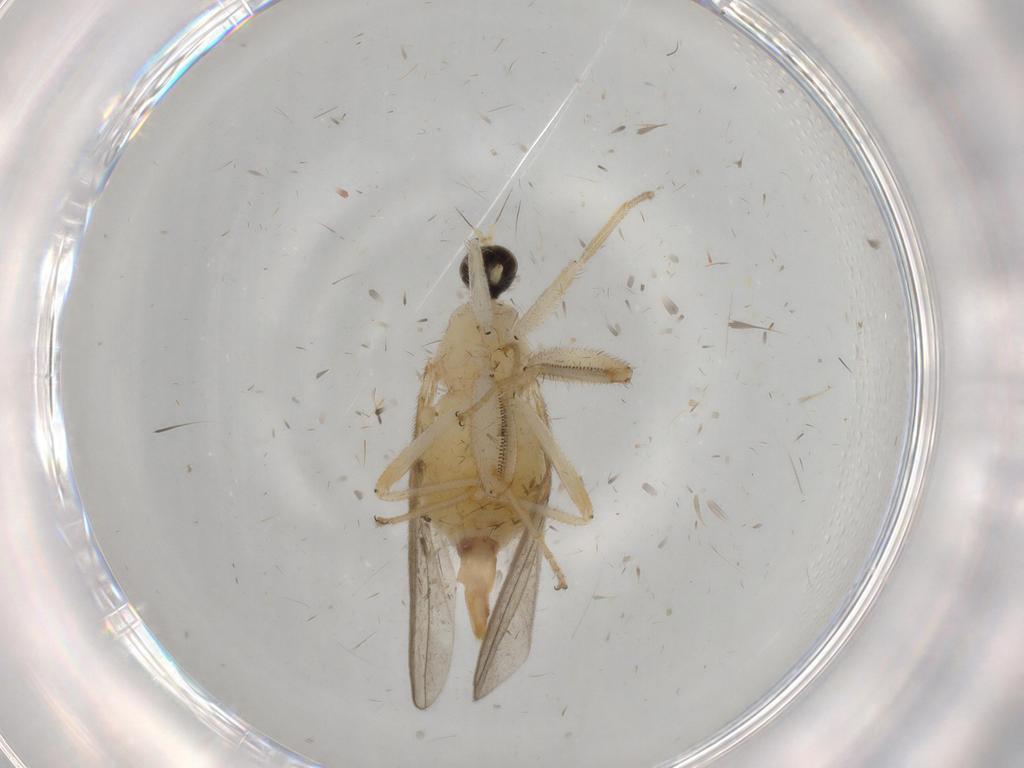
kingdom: Animalia
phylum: Arthropoda
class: Insecta
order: Diptera
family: Hybotidae
